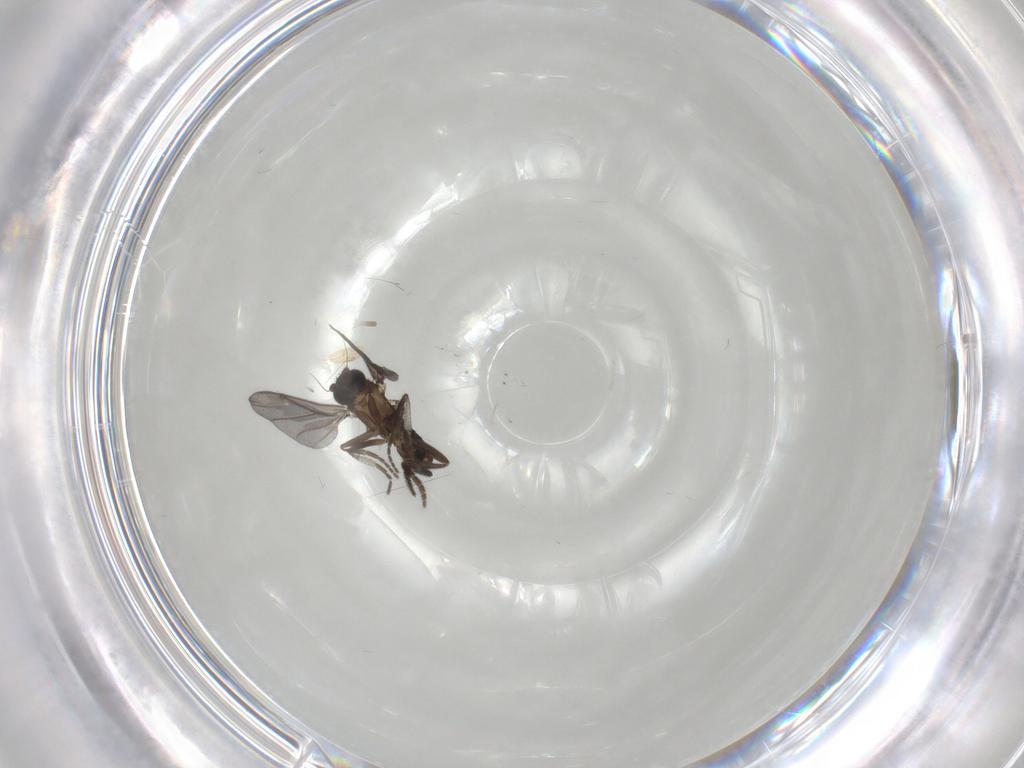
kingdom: Animalia
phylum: Arthropoda
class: Insecta
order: Diptera
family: Phoridae
